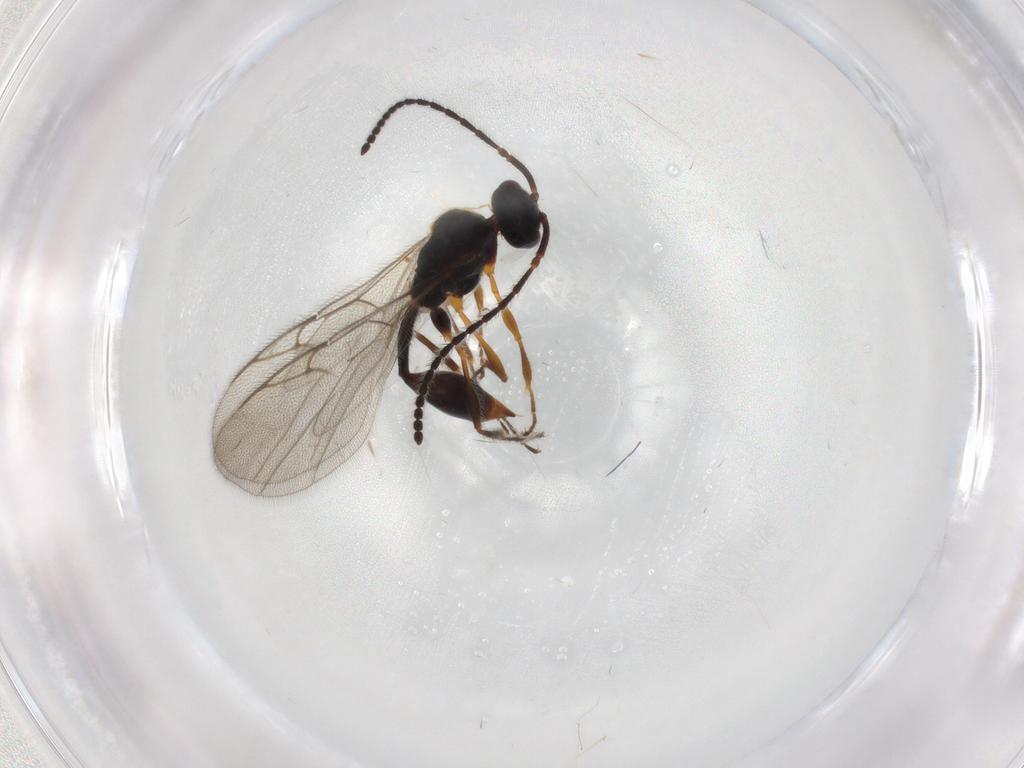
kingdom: Animalia
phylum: Arthropoda
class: Insecta
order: Hymenoptera
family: Diapriidae
